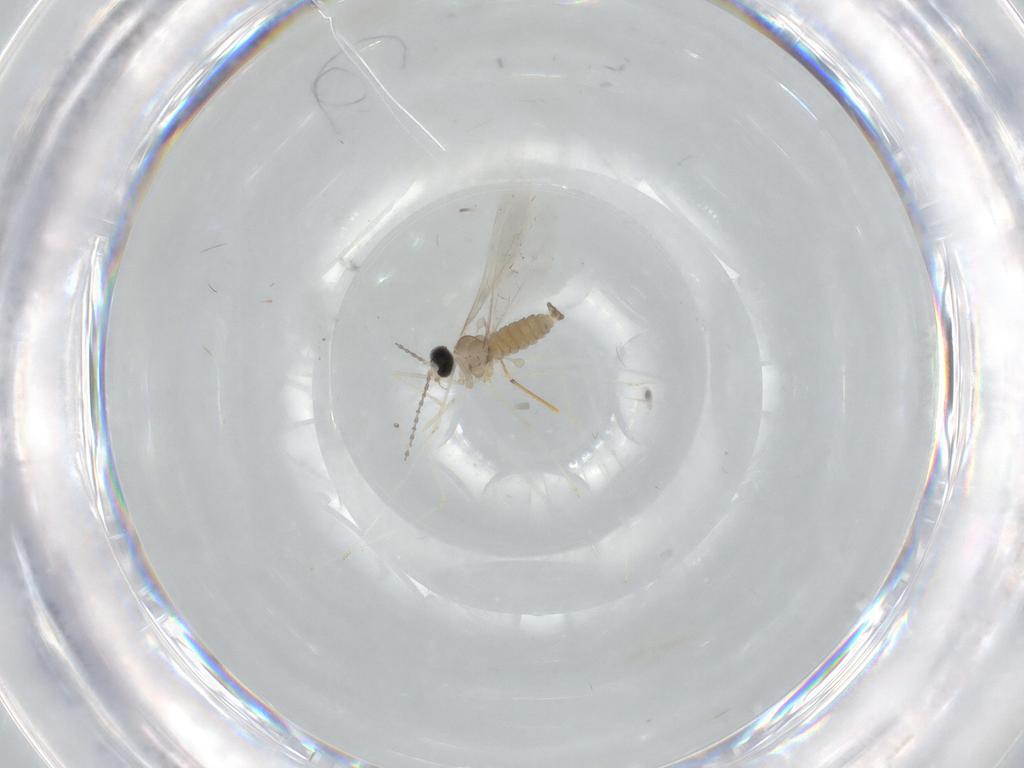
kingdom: Animalia
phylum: Arthropoda
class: Insecta
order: Diptera
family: Cecidomyiidae
